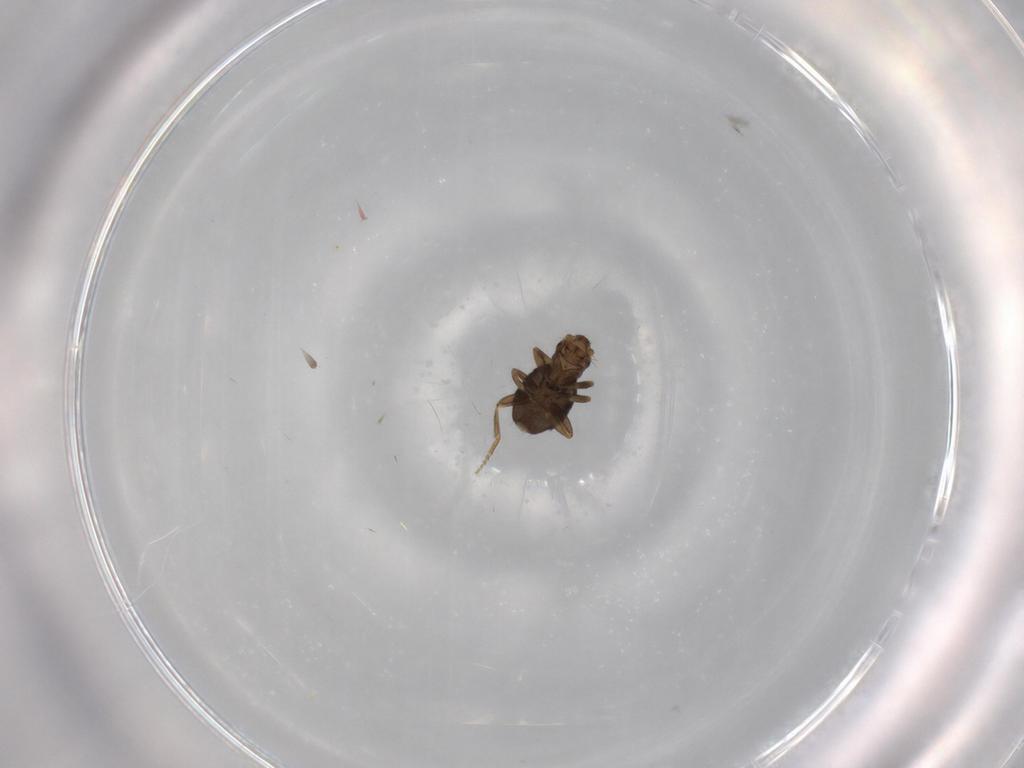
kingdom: Animalia
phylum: Arthropoda
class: Insecta
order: Diptera
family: Phoridae
